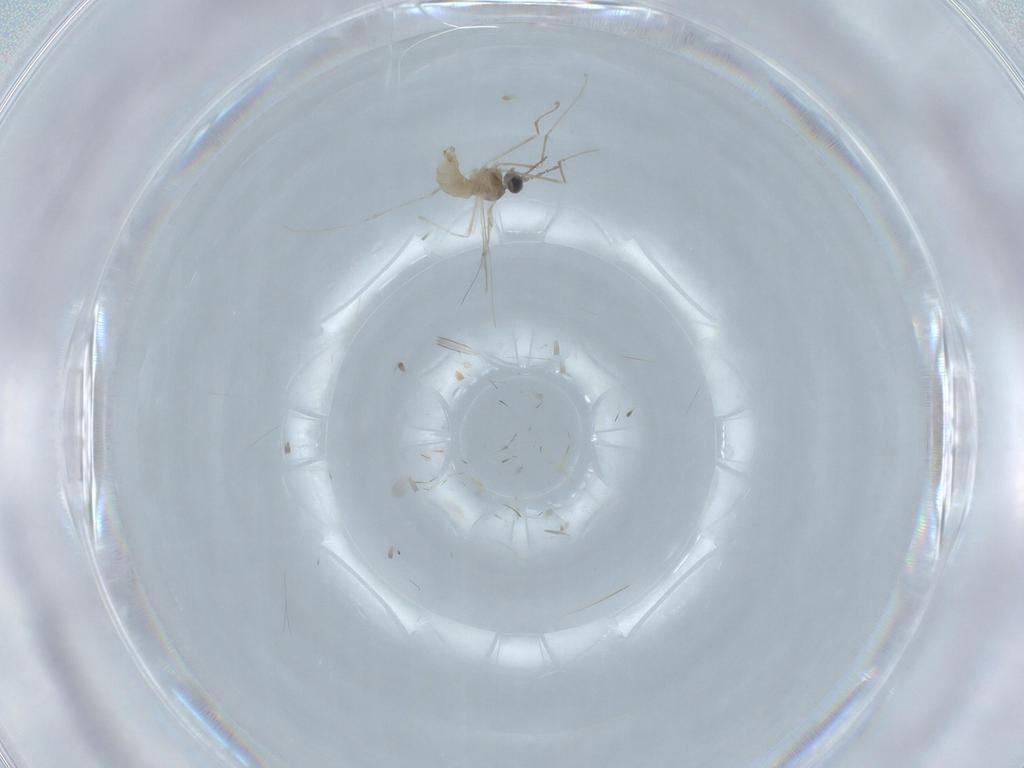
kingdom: Animalia
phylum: Arthropoda
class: Insecta
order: Diptera
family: Cecidomyiidae
